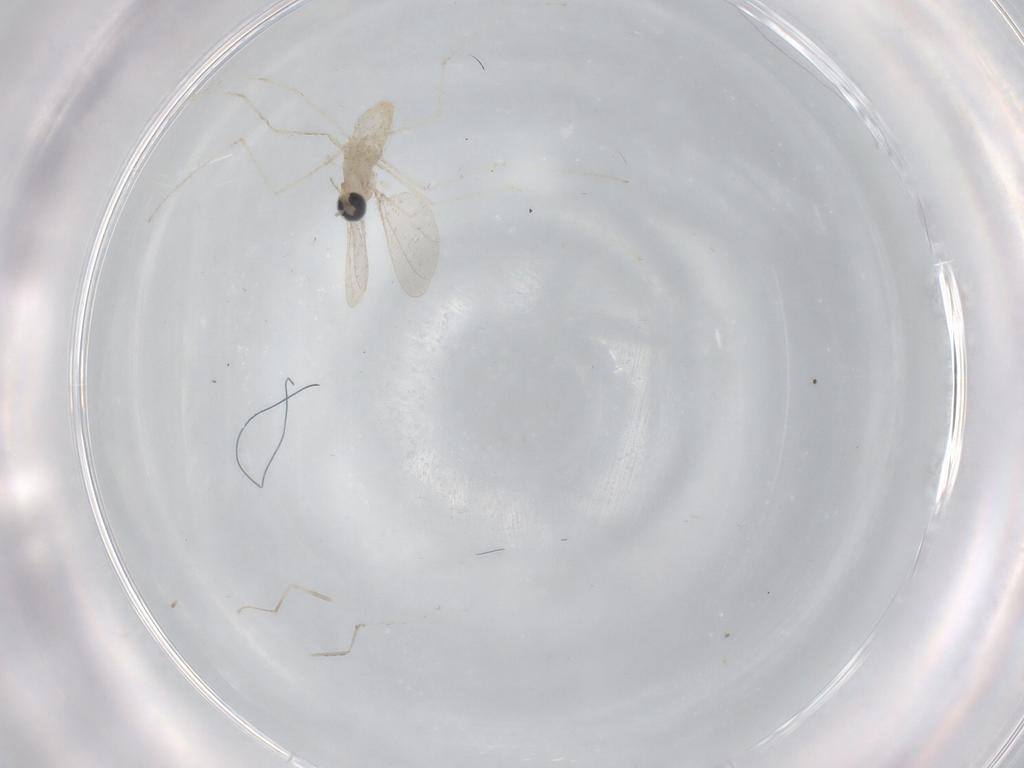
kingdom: Animalia
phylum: Arthropoda
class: Insecta
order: Diptera
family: Cecidomyiidae
